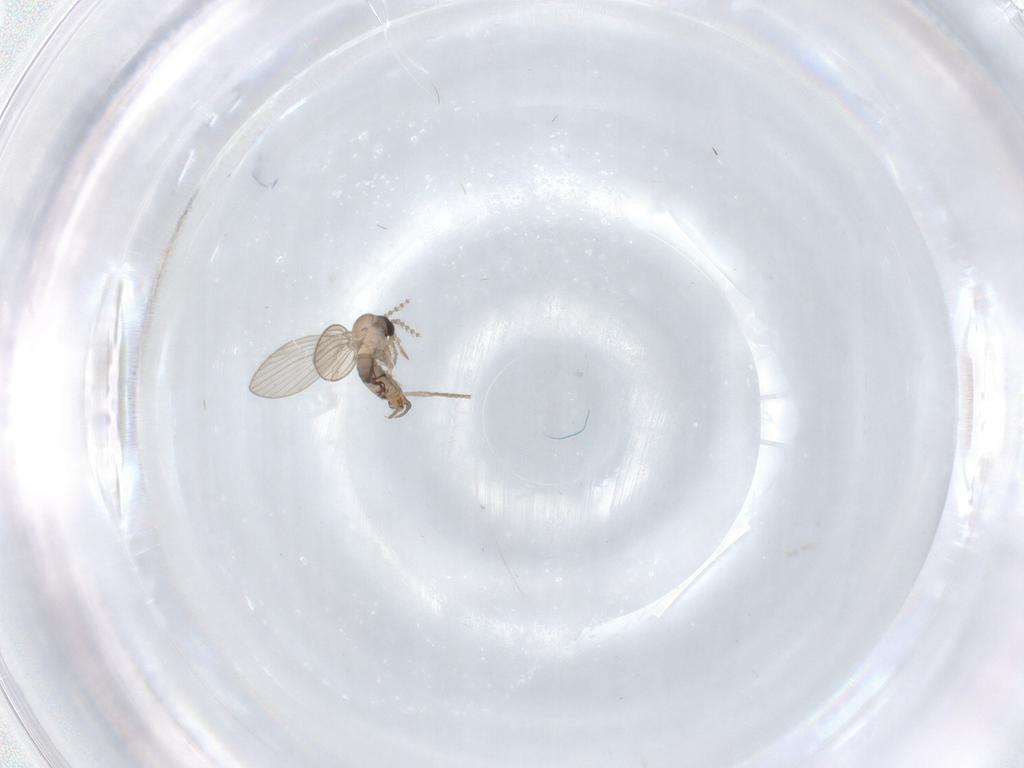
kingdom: Animalia
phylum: Arthropoda
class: Insecta
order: Diptera
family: Psychodidae
